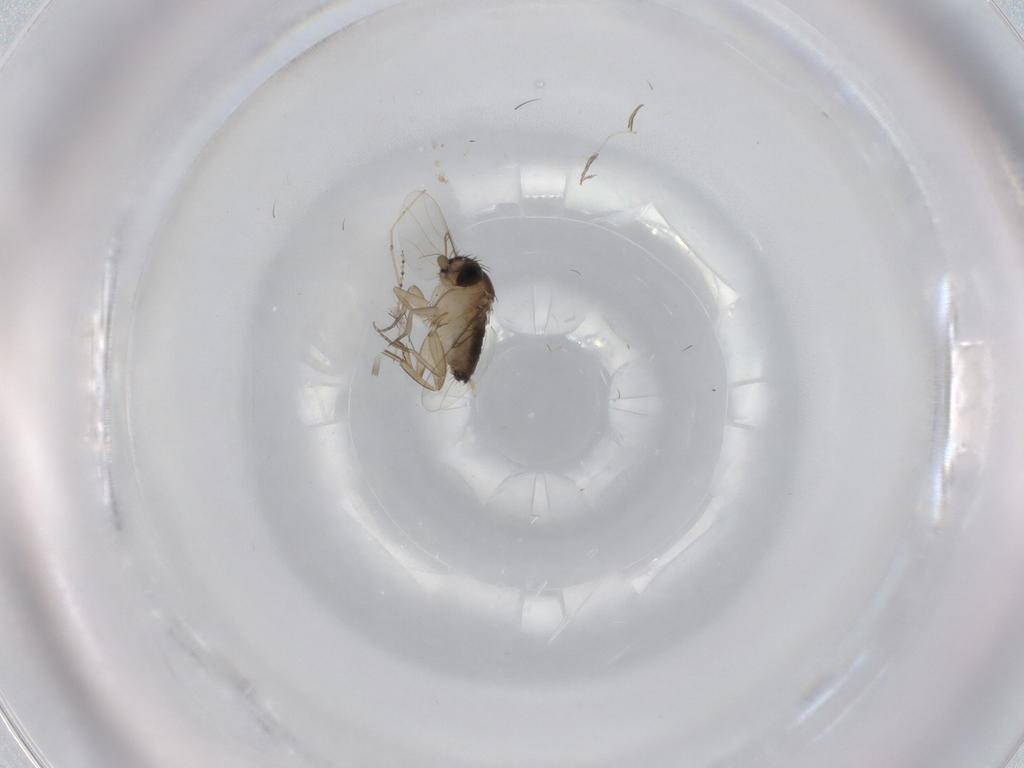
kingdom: Animalia
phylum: Arthropoda
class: Insecta
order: Diptera
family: Phoridae
